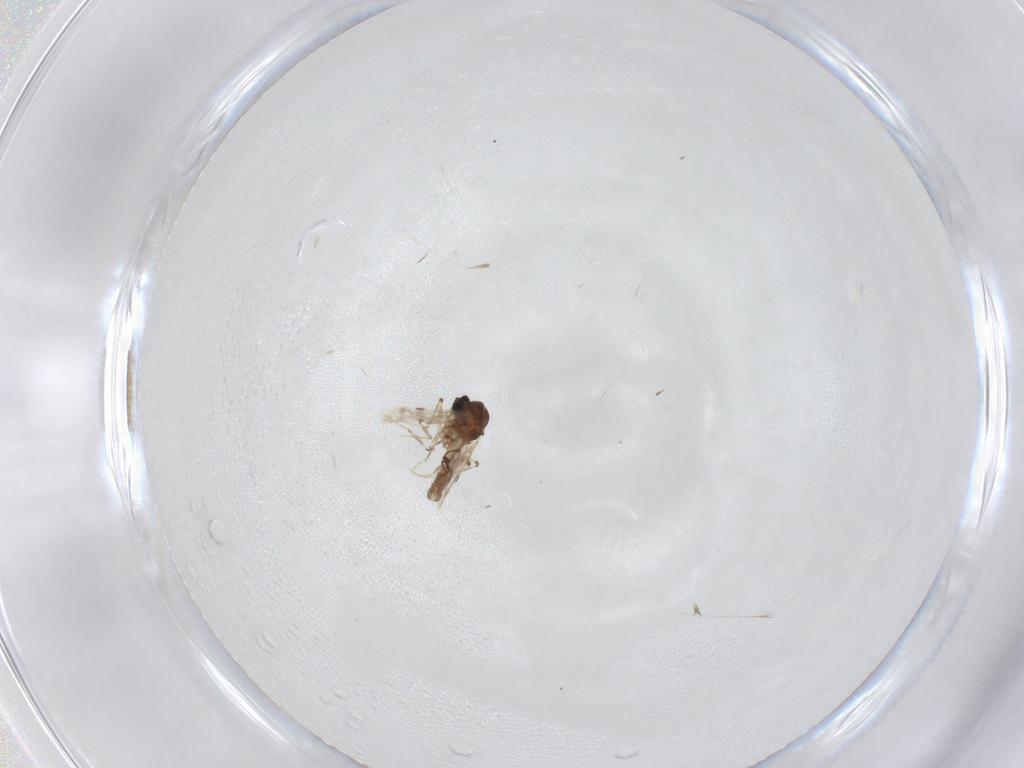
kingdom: Animalia
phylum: Arthropoda
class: Insecta
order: Diptera
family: Ceratopogonidae
